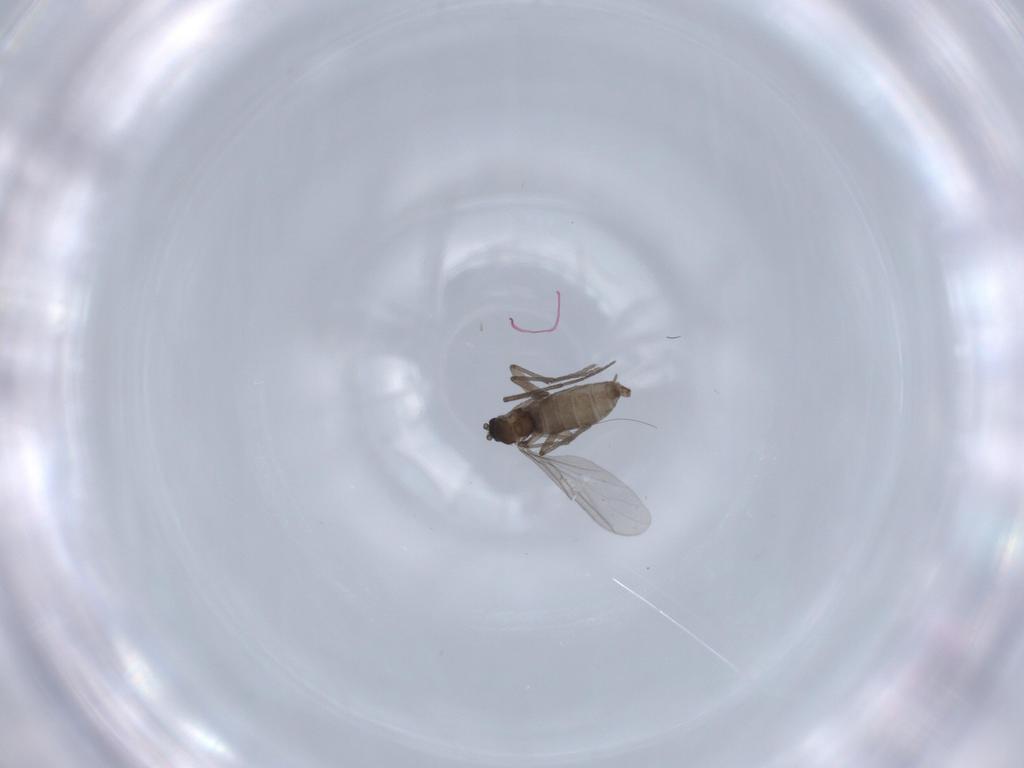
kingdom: Animalia
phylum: Arthropoda
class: Insecta
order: Diptera
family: Sciaridae
